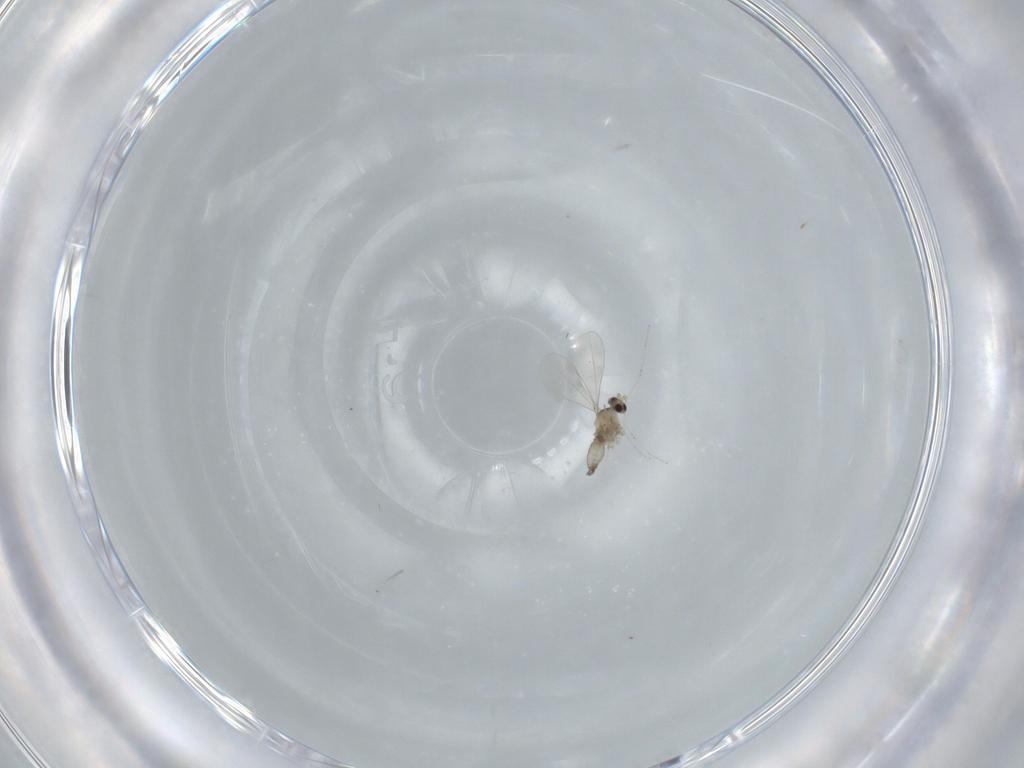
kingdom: Animalia
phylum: Arthropoda
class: Insecta
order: Diptera
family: Cecidomyiidae
